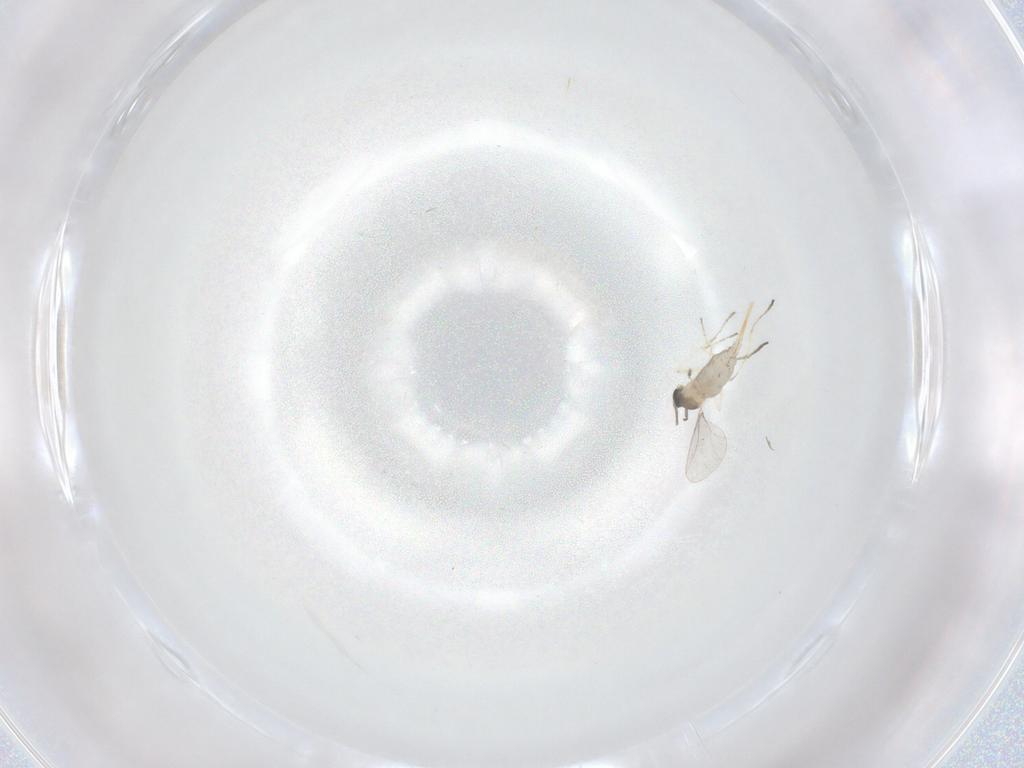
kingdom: Animalia
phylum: Arthropoda
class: Insecta
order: Diptera
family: Cecidomyiidae
